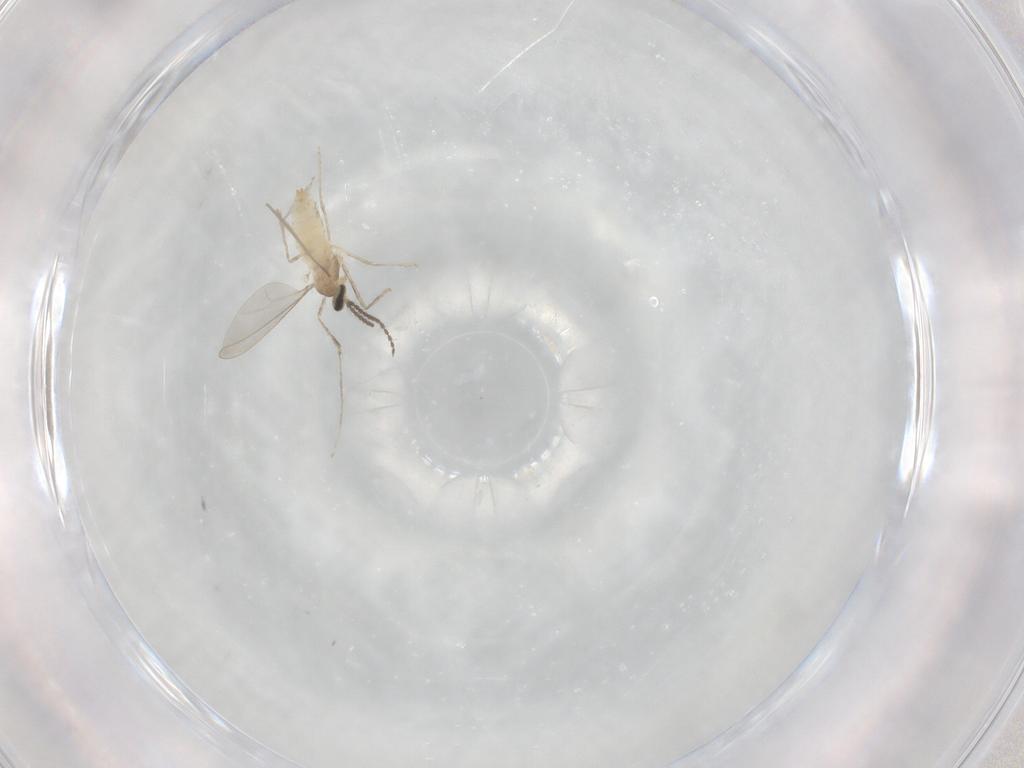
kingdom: Animalia
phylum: Arthropoda
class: Insecta
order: Diptera
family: Cecidomyiidae
